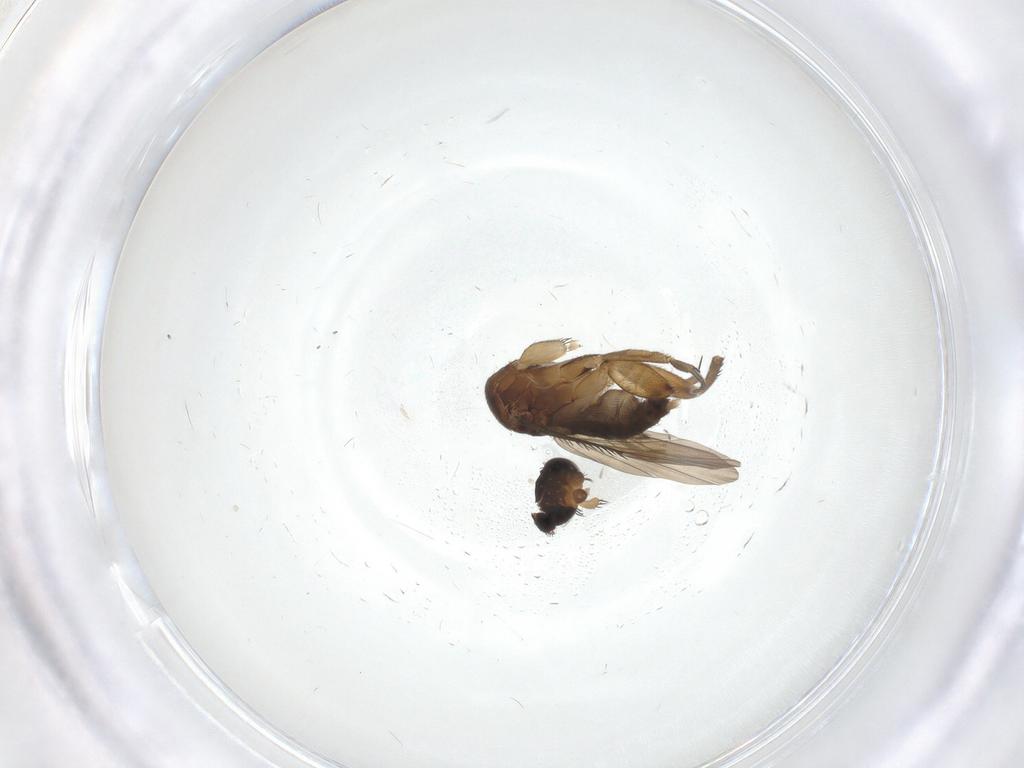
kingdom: Animalia
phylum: Arthropoda
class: Insecta
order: Diptera
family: Phoridae
